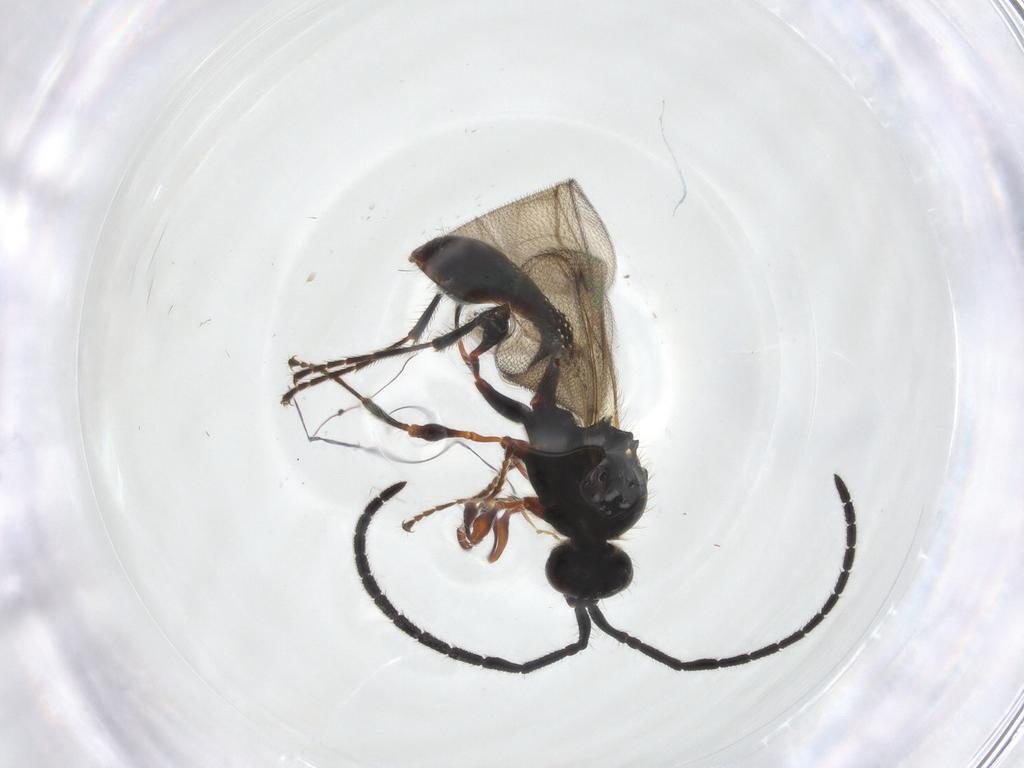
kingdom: Animalia
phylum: Arthropoda
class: Insecta
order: Hymenoptera
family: Diapriidae
